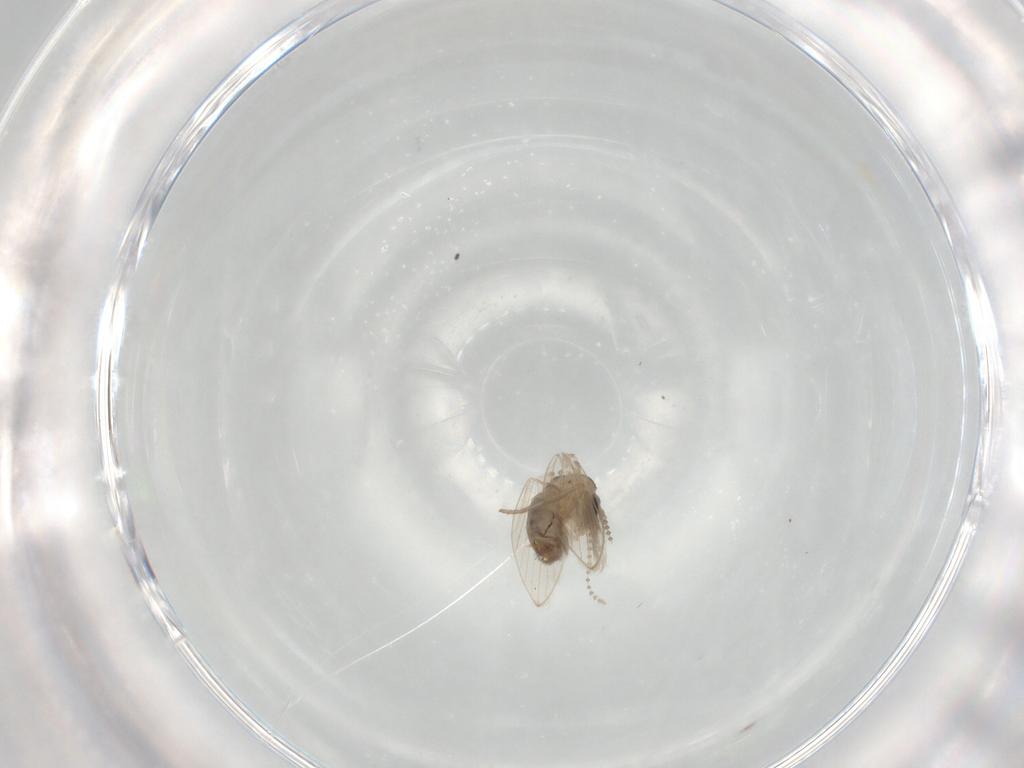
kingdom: Animalia
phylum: Arthropoda
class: Insecta
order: Diptera
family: Psychodidae
